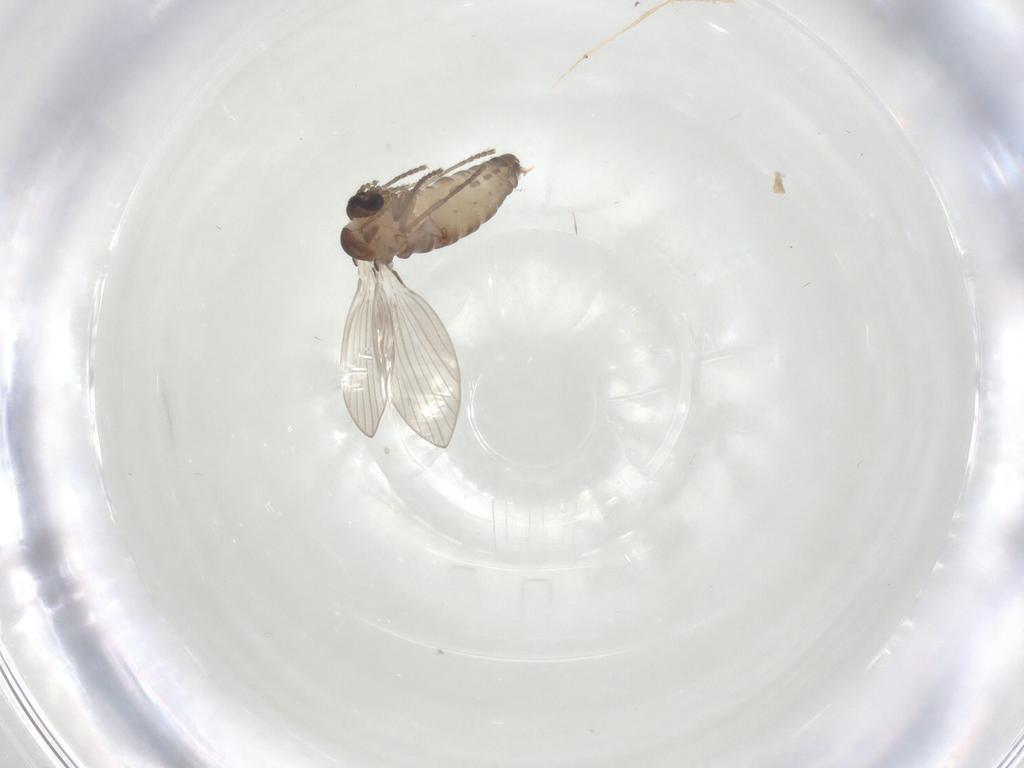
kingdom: Animalia
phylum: Arthropoda
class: Insecta
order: Diptera
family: Psychodidae
